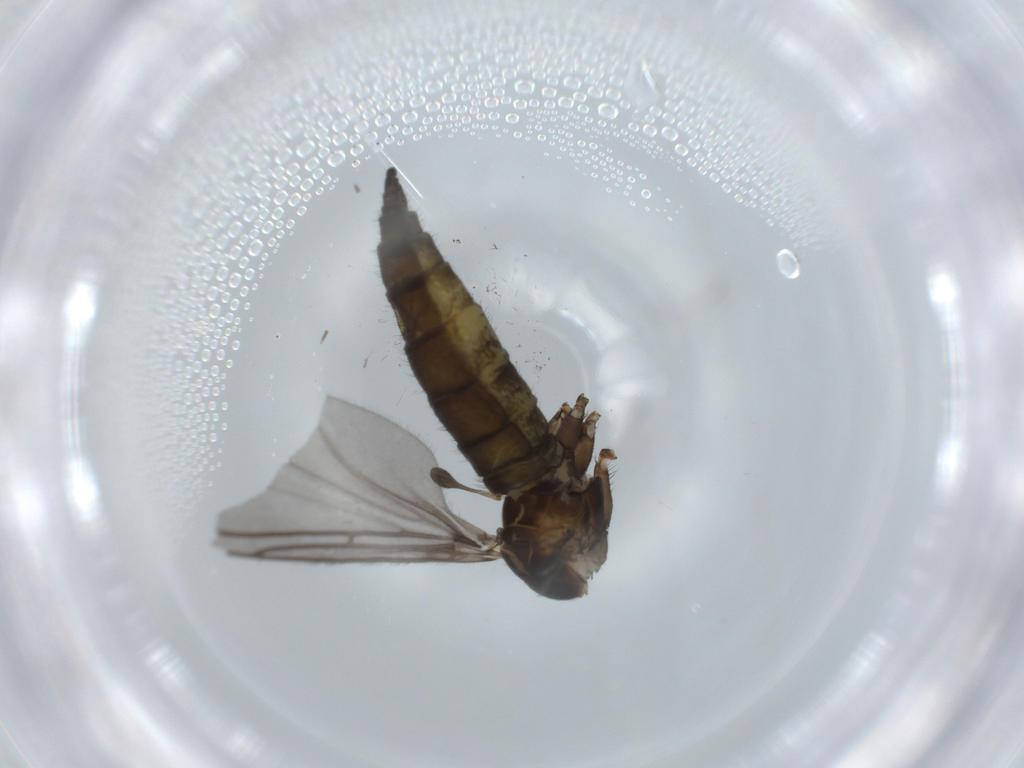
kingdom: Animalia
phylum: Arthropoda
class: Insecta
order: Diptera
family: Sciaridae
